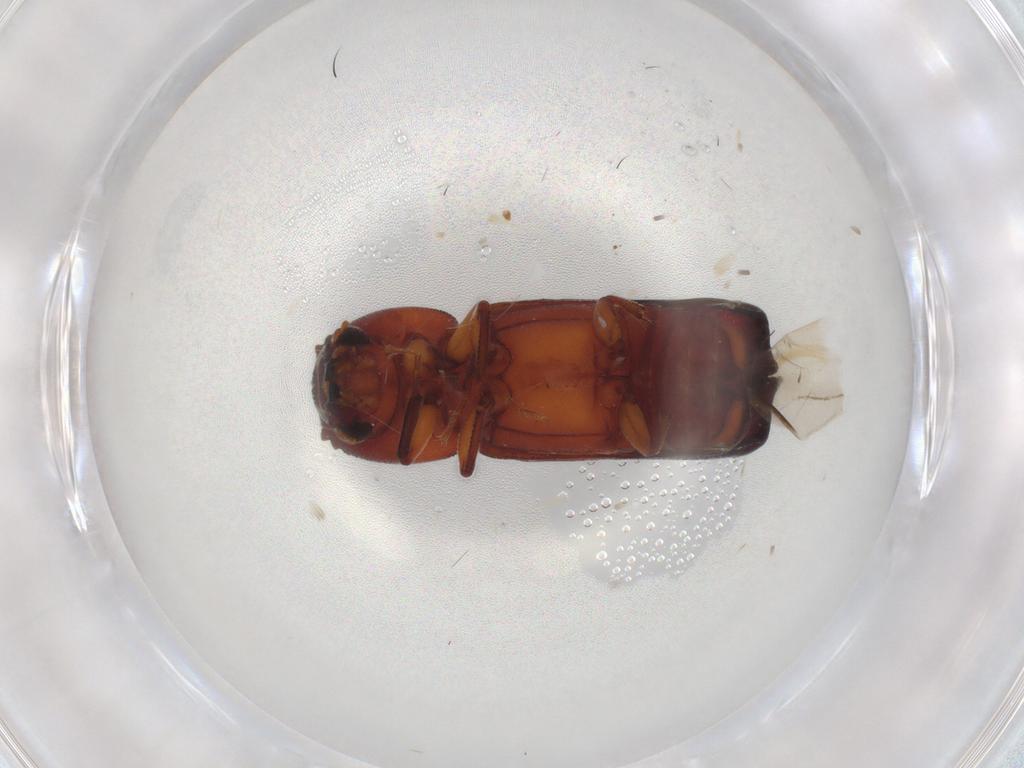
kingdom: Animalia
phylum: Arthropoda
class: Insecta
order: Coleoptera
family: Bostrichidae
